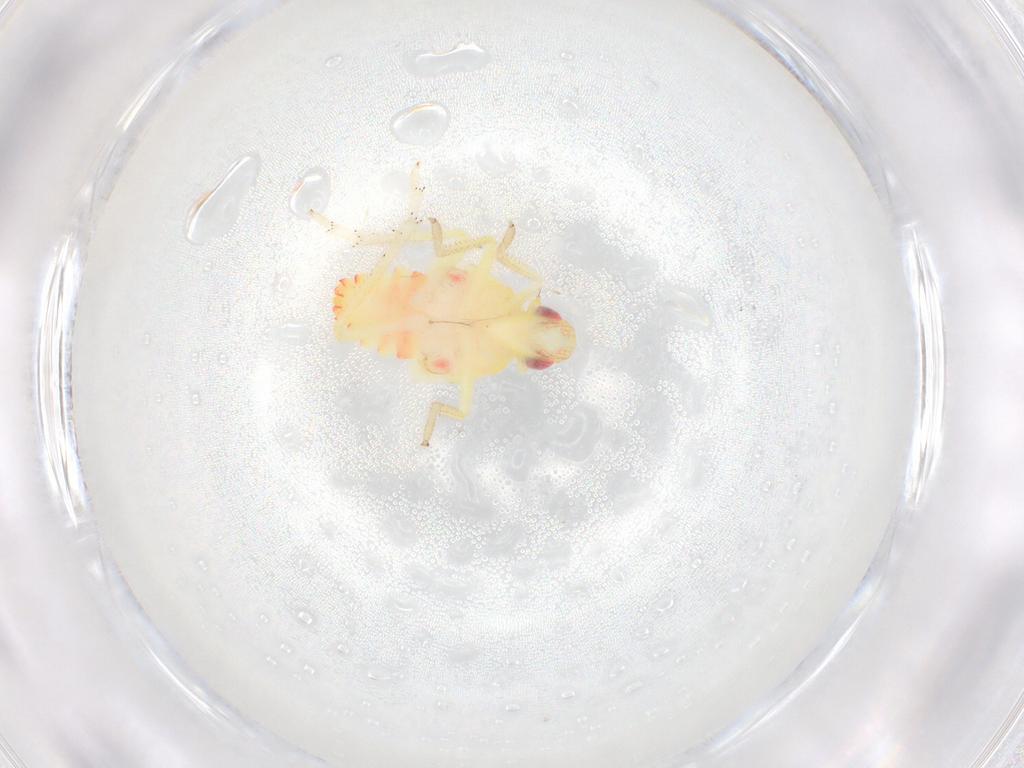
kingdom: Animalia
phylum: Arthropoda
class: Insecta
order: Hemiptera
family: Tropiduchidae
